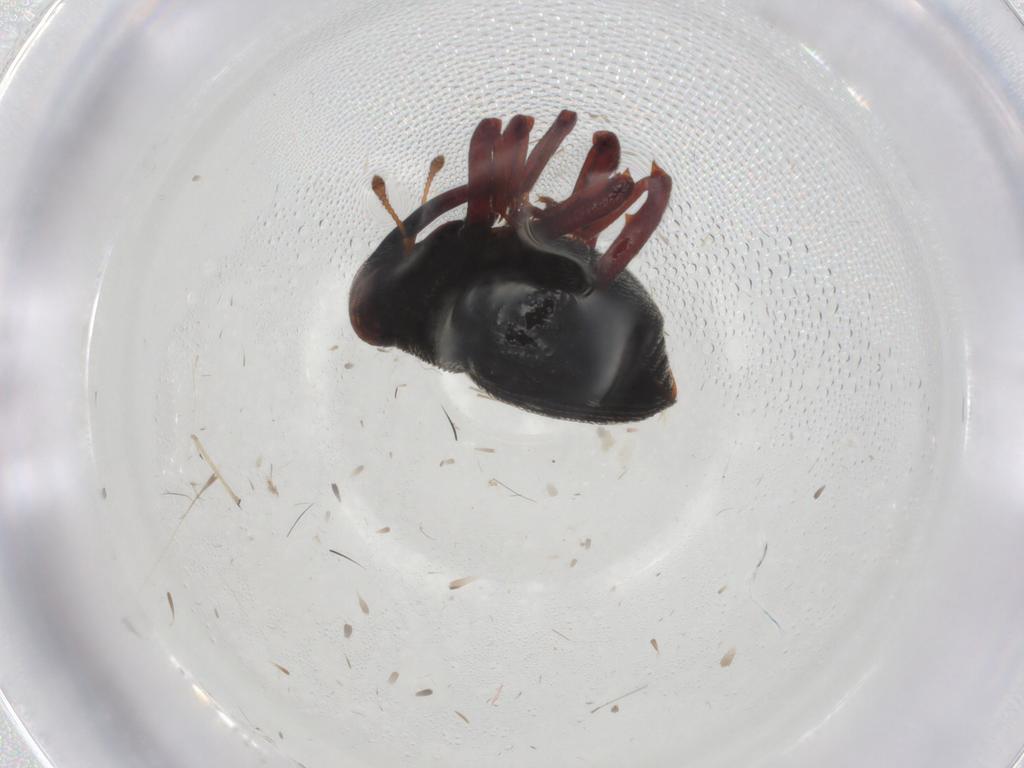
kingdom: Animalia
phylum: Arthropoda
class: Insecta
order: Coleoptera
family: Curculionidae
